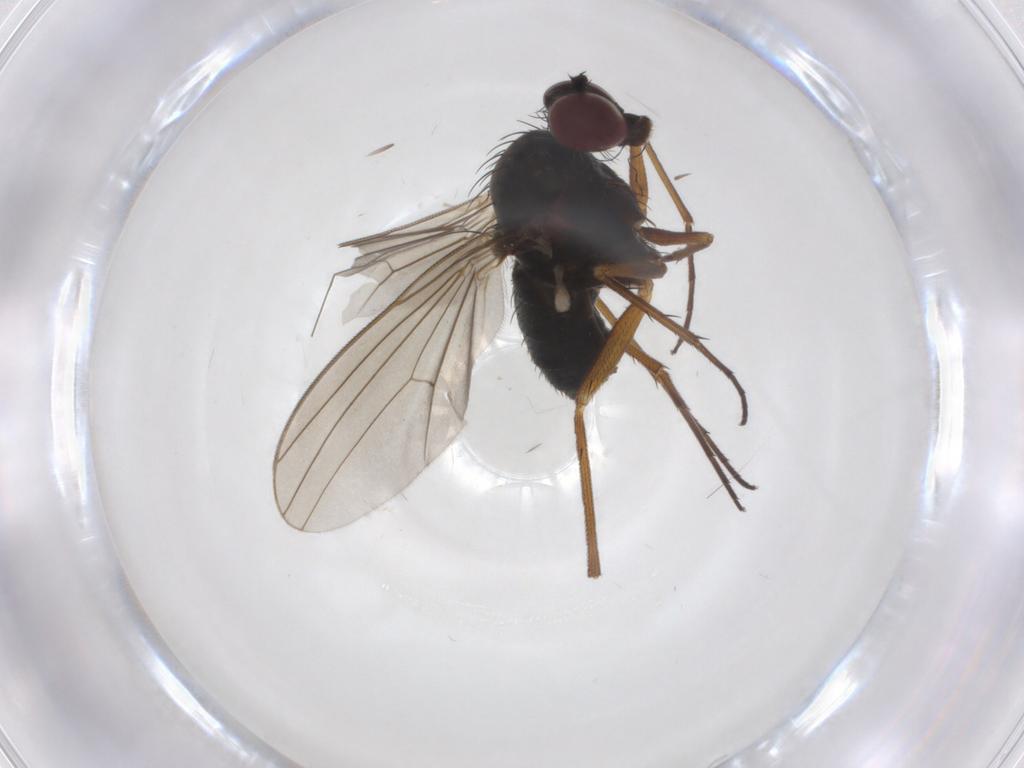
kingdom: Animalia
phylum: Arthropoda
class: Insecta
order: Diptera
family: Dolichopodidae
